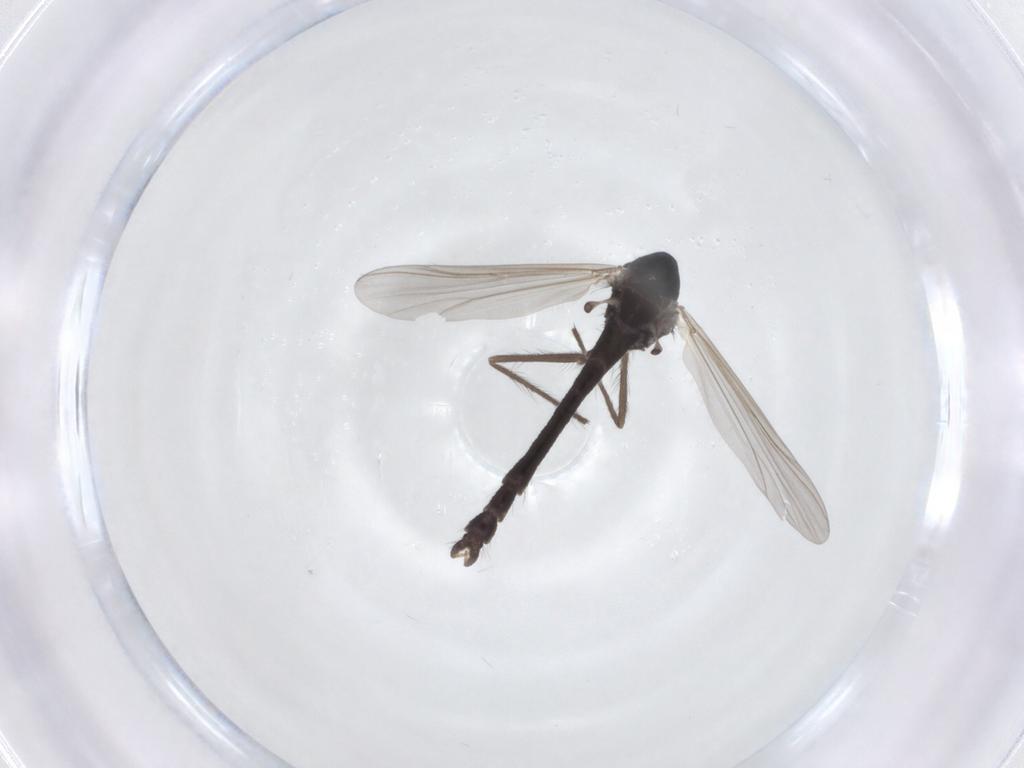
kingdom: Animalia
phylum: Arthropoda
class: Insecta
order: Diptera
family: Chironomidae
